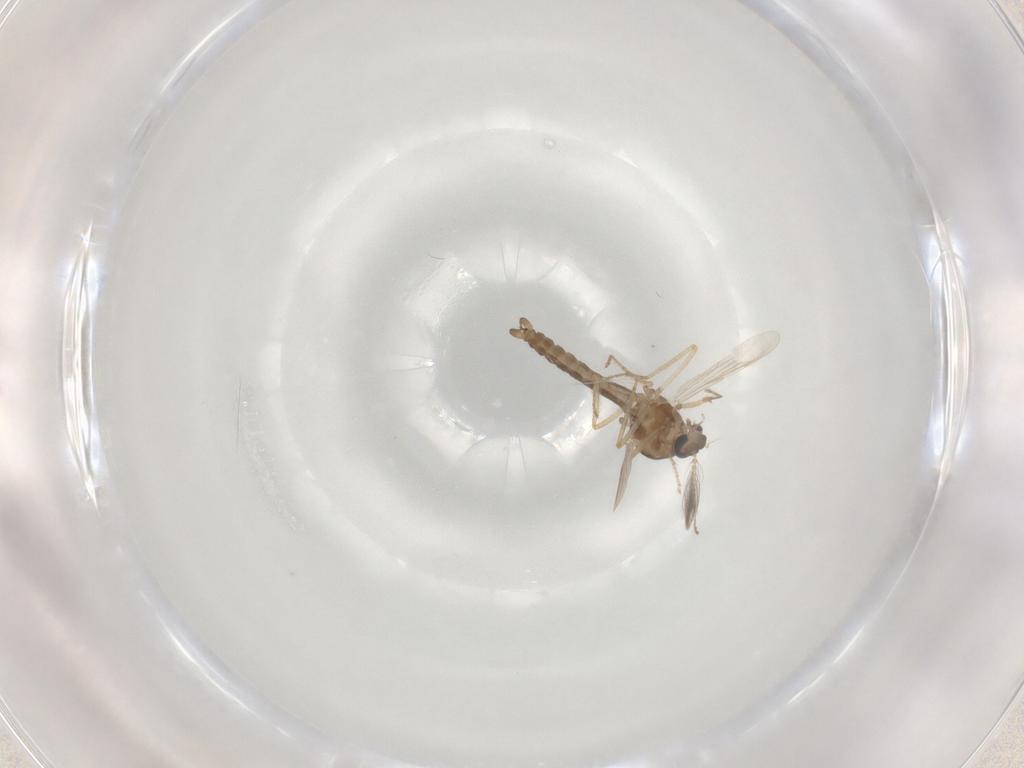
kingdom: Animalia
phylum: Arthropoda
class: Insecta
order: Diptera
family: Ceratopogonidae
